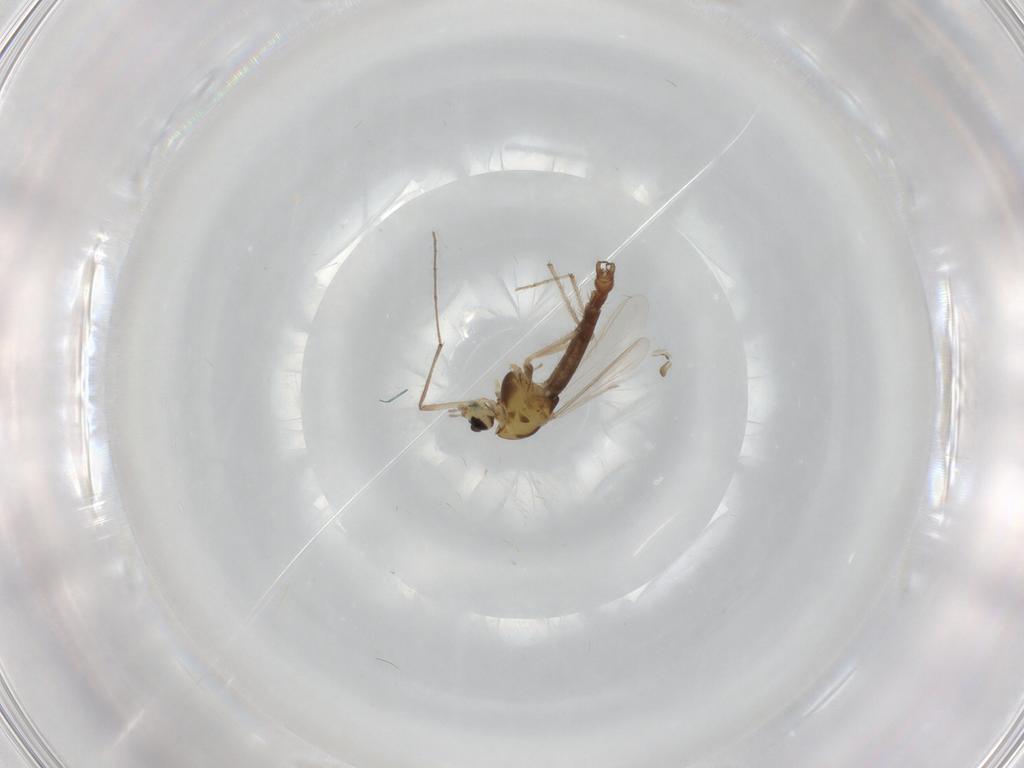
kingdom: Animalia
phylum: Arthropoda
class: Insecta
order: Diptera
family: Chironomidae
